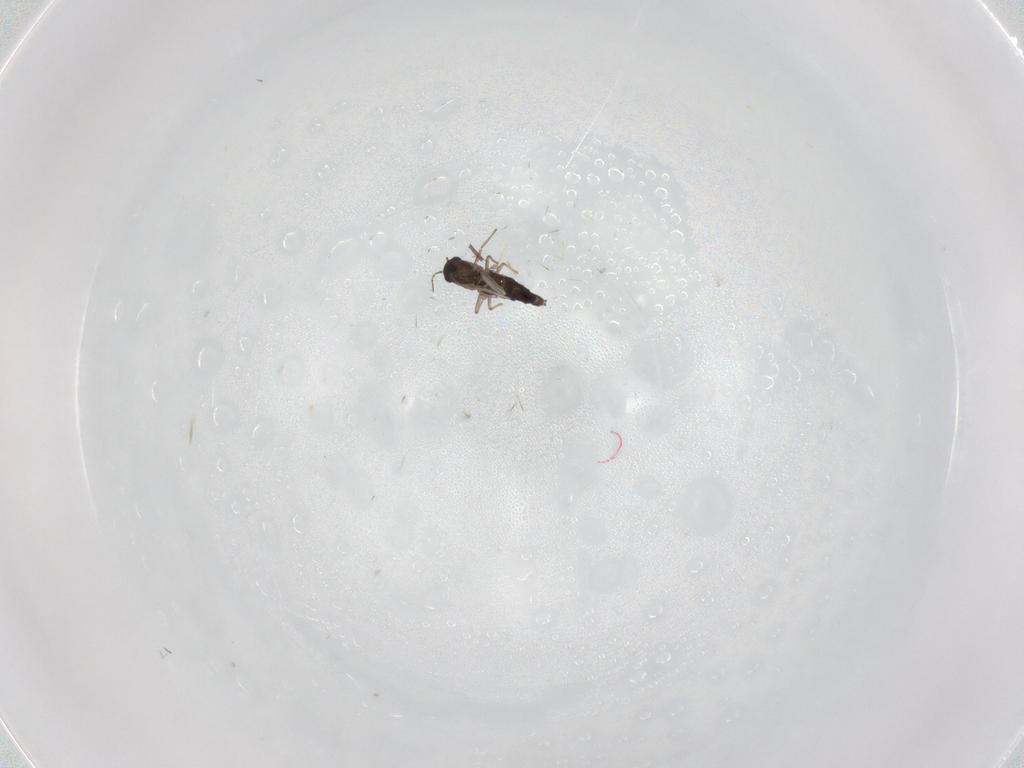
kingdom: Animalia
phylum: Arthropoda
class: Insecta
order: Diptera
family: Chironomidae
